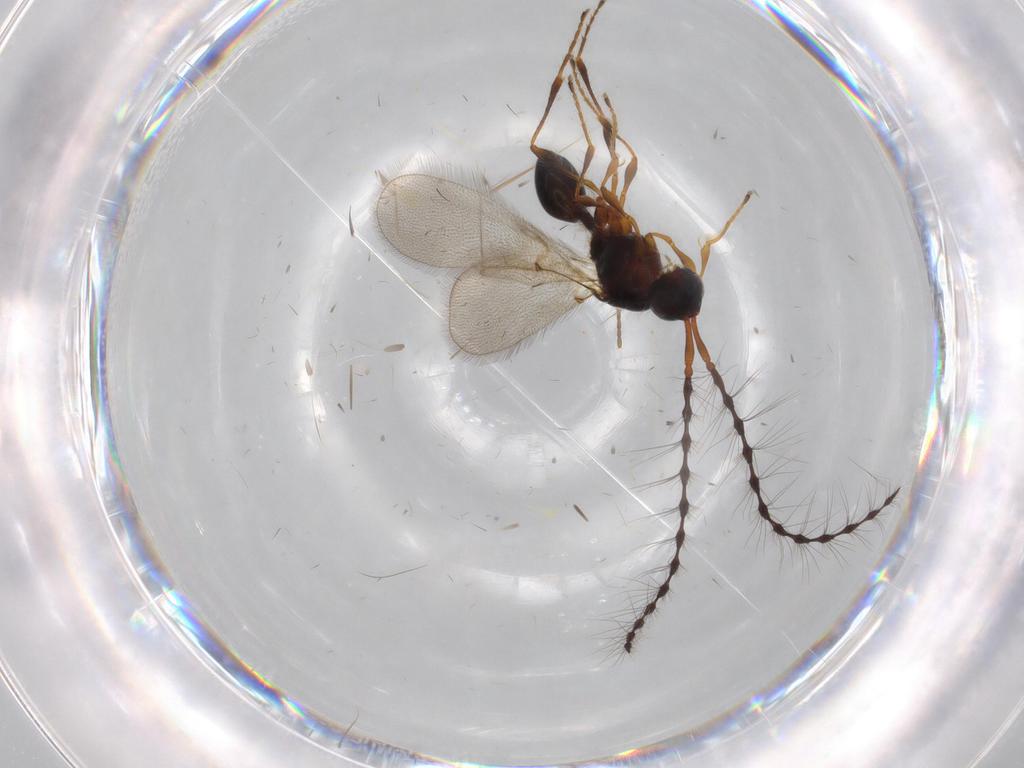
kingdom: Animalia
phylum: Arthropoda
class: Insecta
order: Hymenoptera
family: Diapriidae
